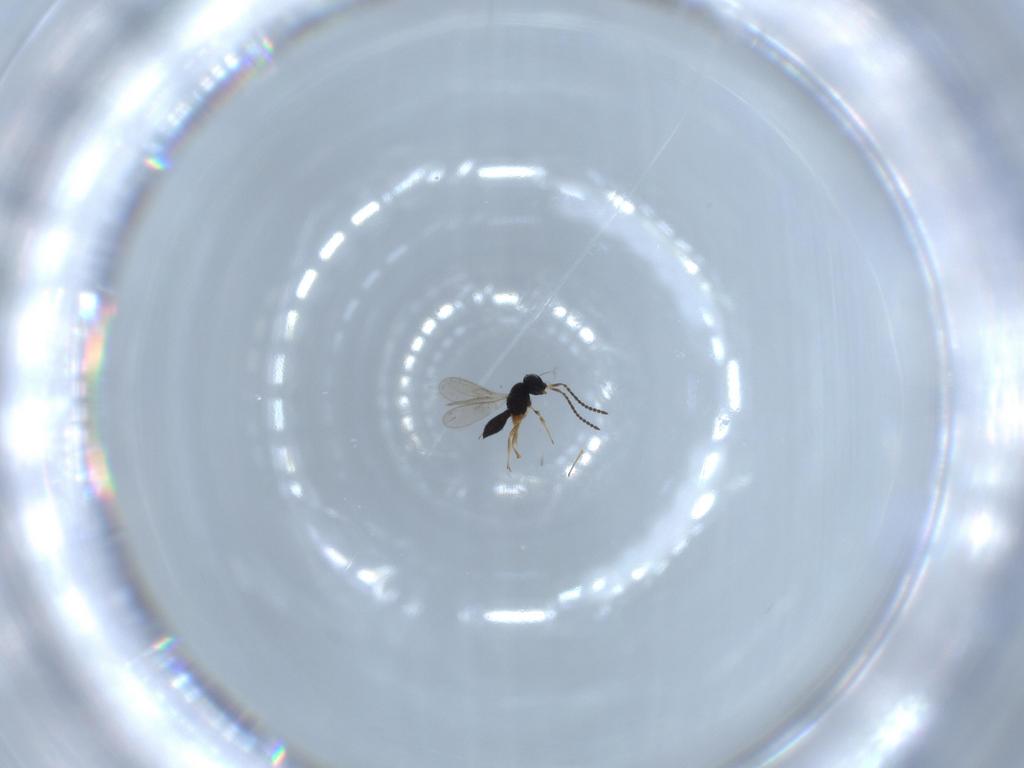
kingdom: Animalia
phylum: Arthropoda
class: Insecta
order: Hymenoptera
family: Scelionidae
